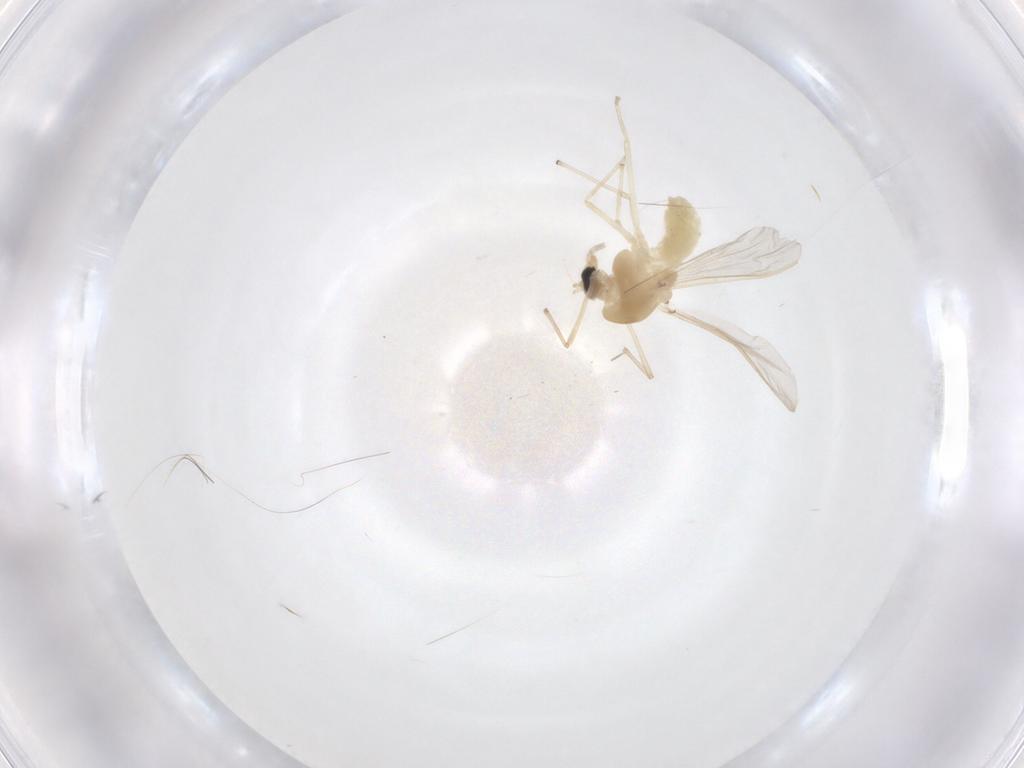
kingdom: Animalia
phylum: Arthropoda
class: Insecta
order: Diptera
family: Chironomidae
